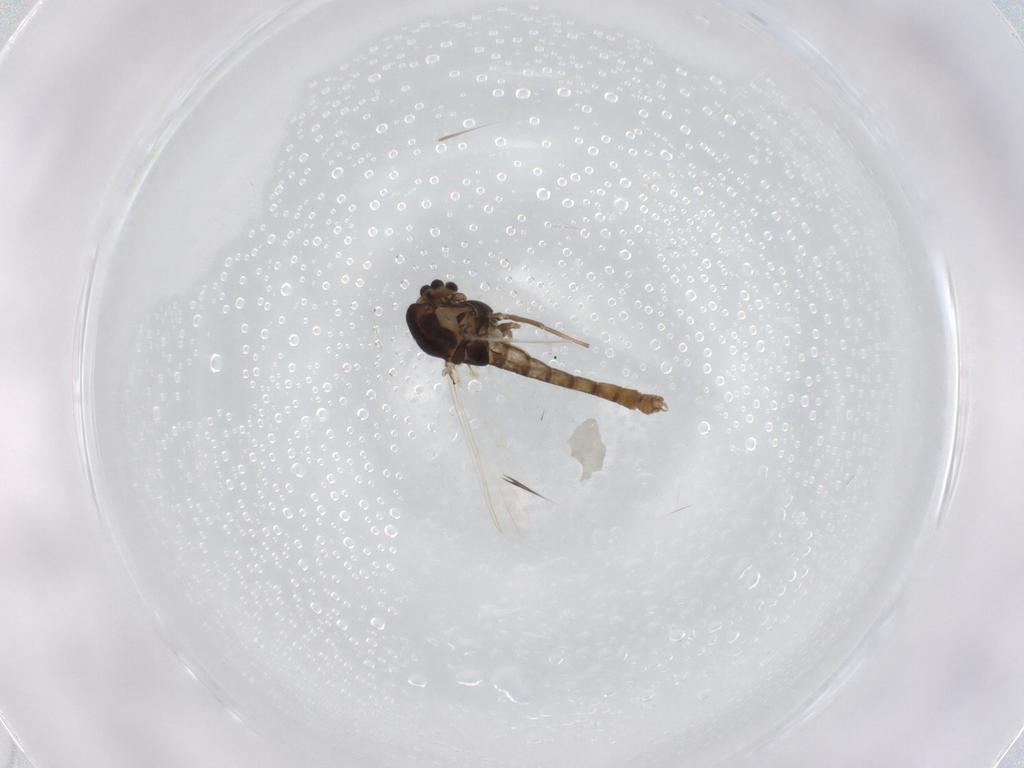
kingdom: Animalia
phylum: Arthropoda
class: Insecta
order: Diptera
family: Chironomidae
